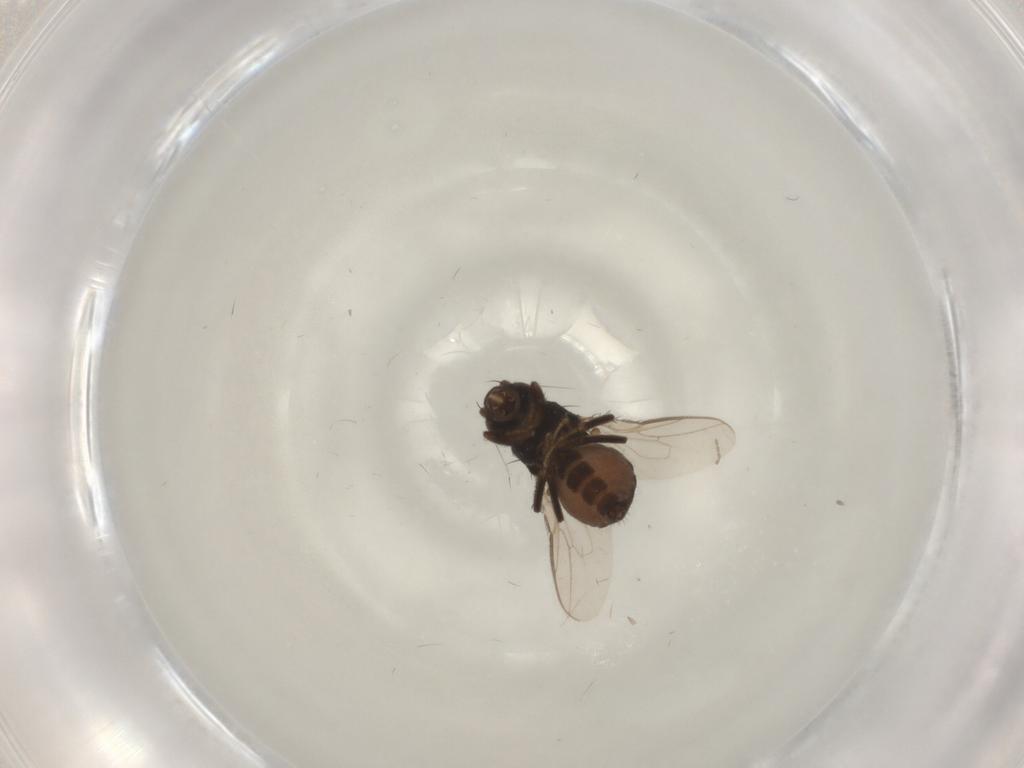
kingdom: Animalia
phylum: Arthropoda
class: Insecta
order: Diptera
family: Sphaeroceridae
